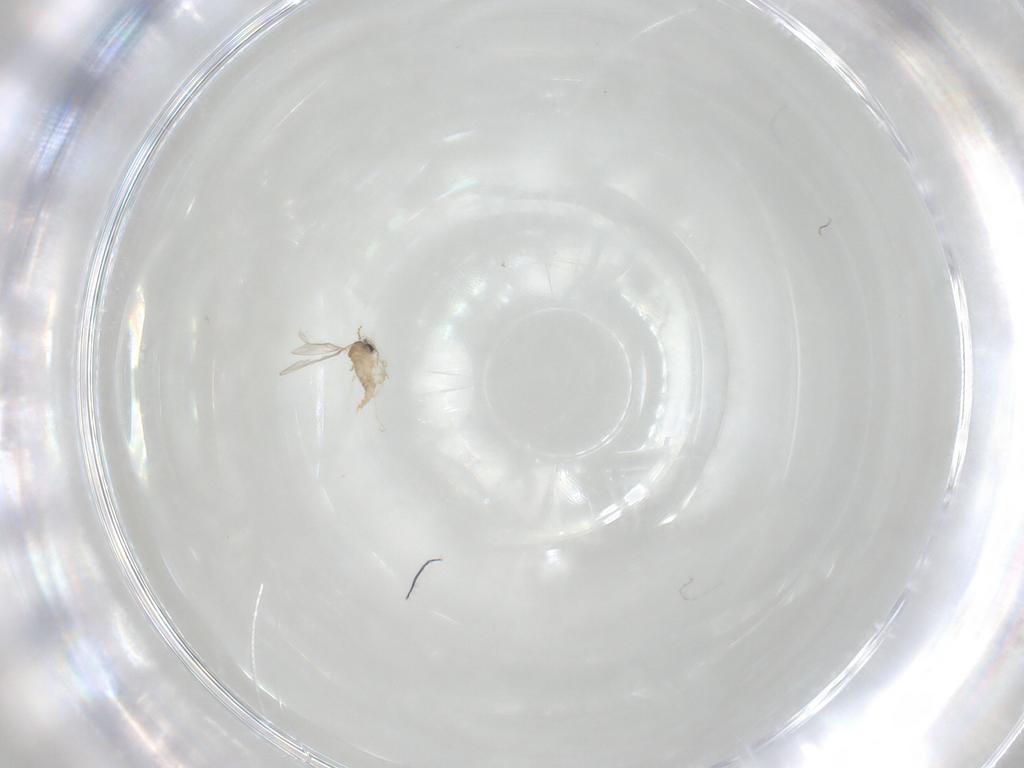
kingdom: Animalia
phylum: Arthropoda
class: Insecta
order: Diptera
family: Cecidomyiidae
